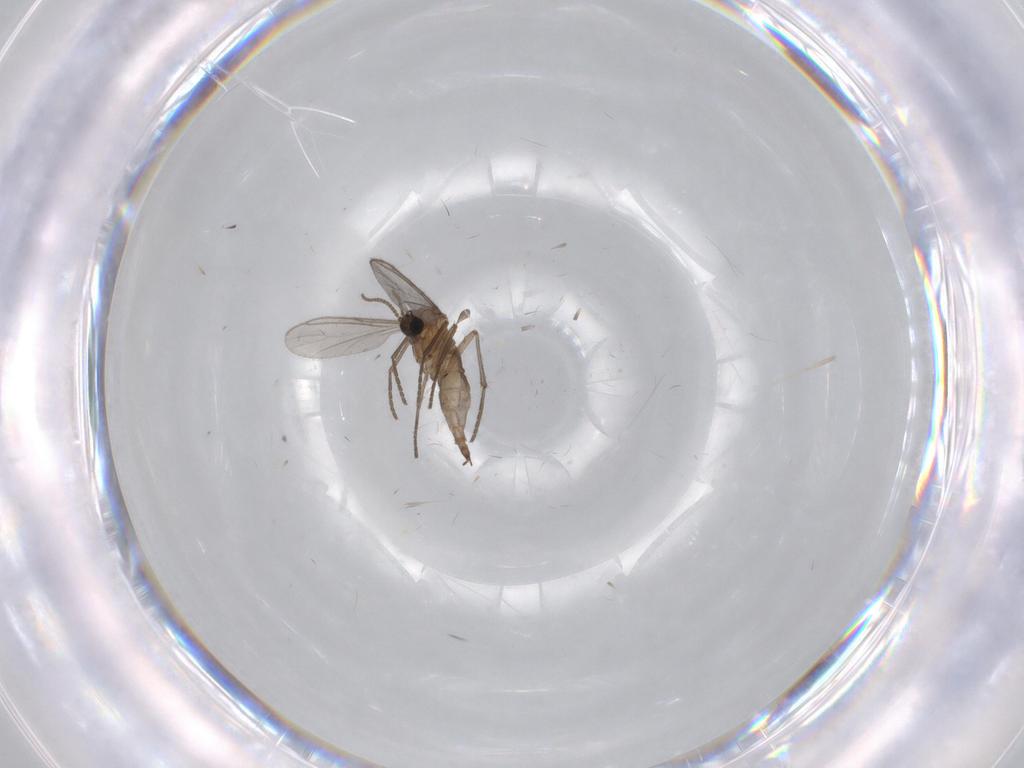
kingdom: Animalia
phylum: Arthropoda
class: Insecta
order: Diptera
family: Sciaridae
